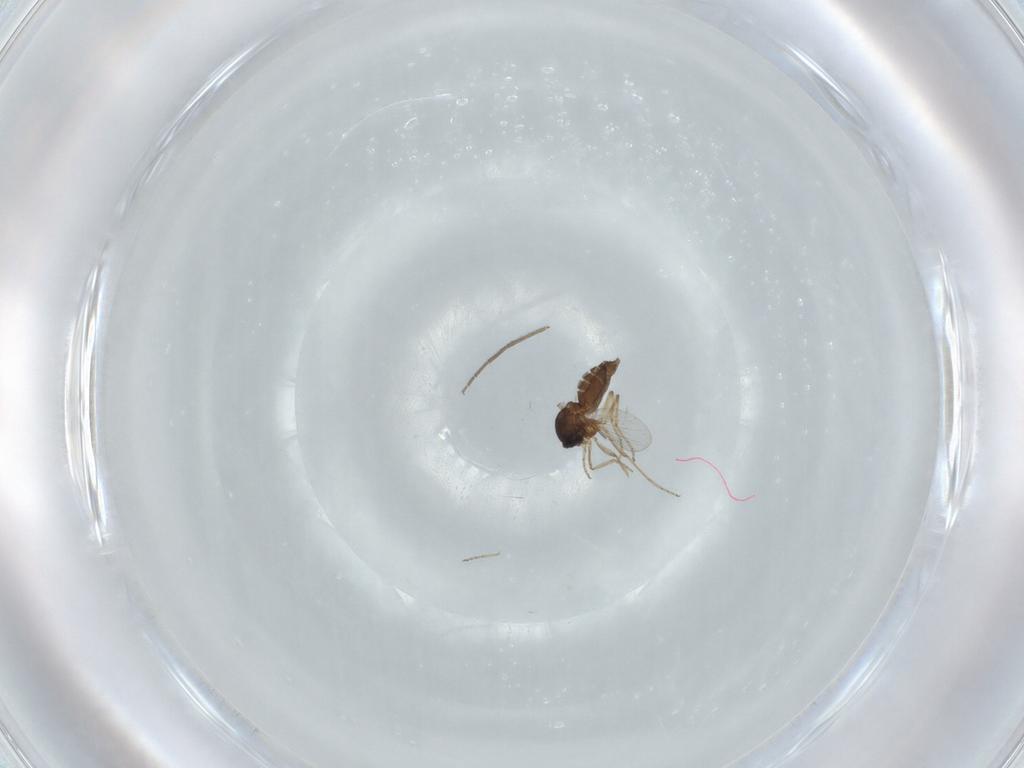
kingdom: Animalia
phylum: Arthropoda
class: Insecta
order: Diptera
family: Ceratopogonidae
